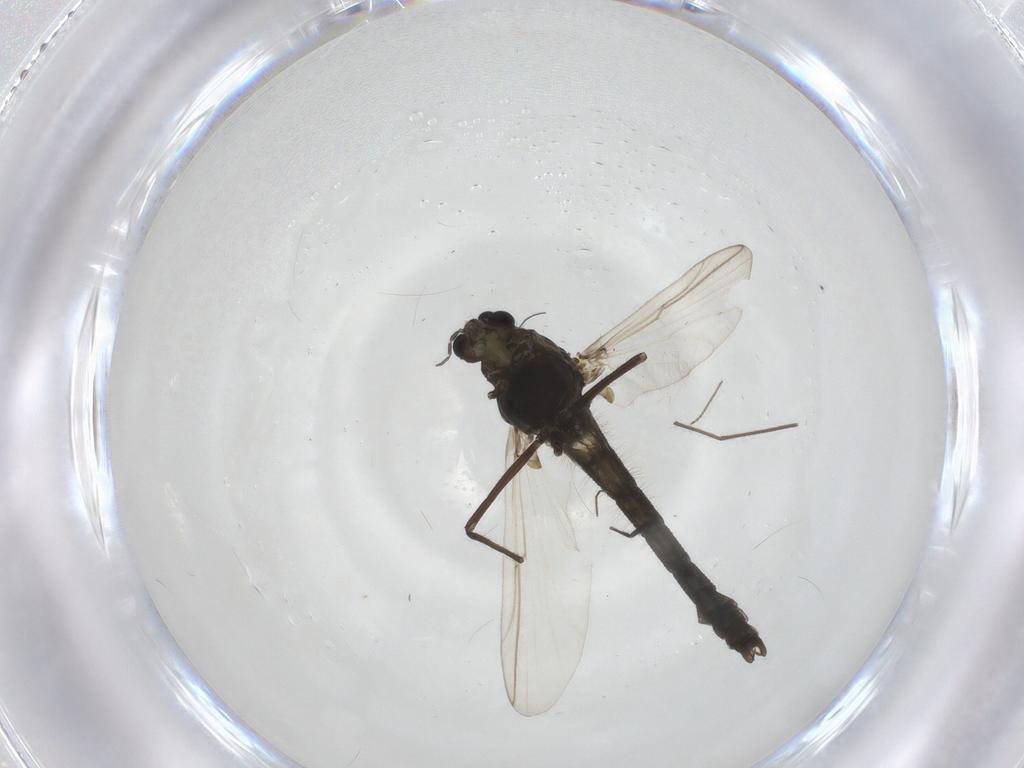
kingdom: Animalia
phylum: Arthropoda
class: Insecta
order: Diptera
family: Chironomidae
